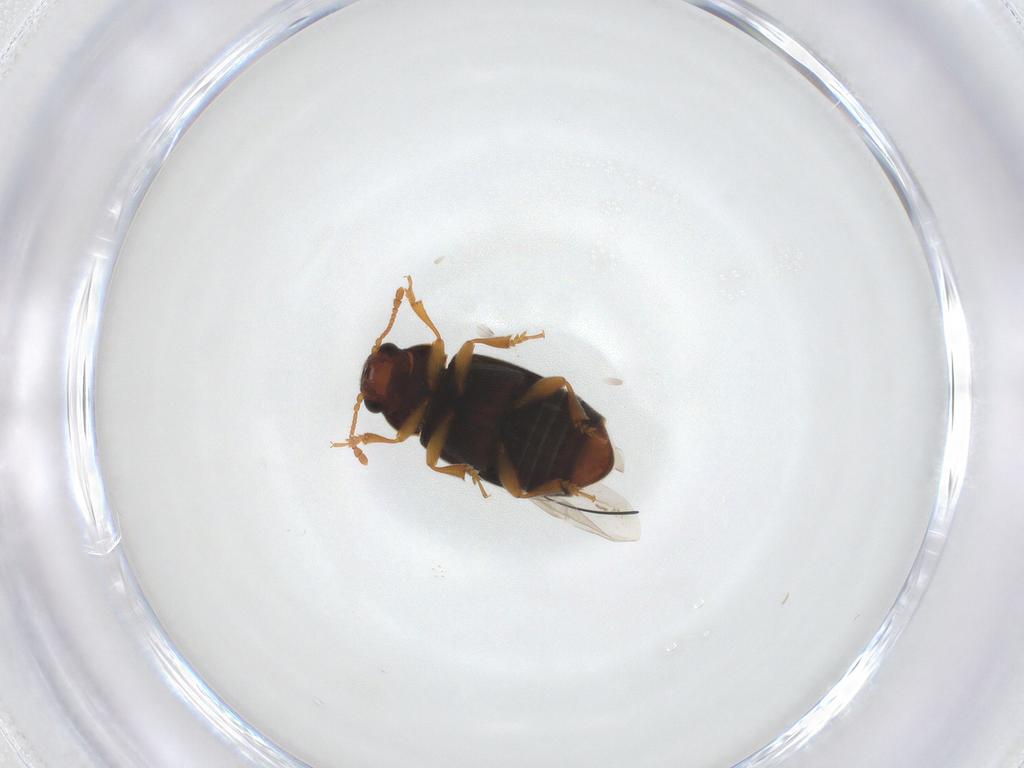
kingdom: Animalia
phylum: Arthropoda
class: Insecta
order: Coleoptera
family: Kateretidae
